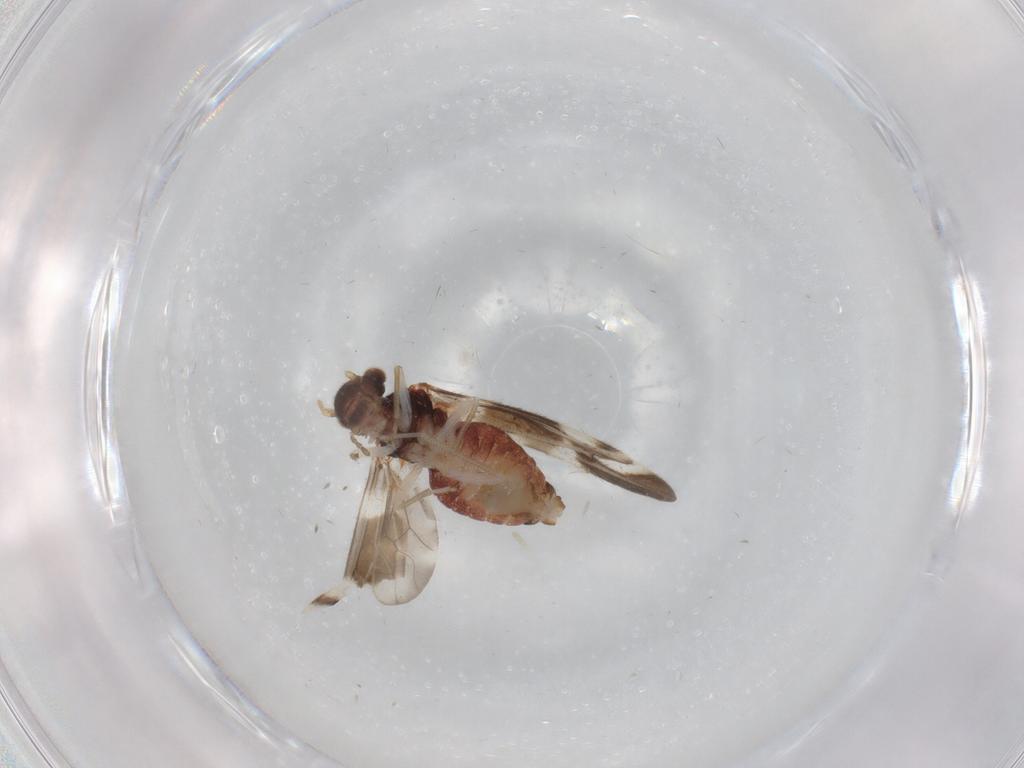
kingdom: Animalia
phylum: Arthropoda
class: Insecta
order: Psocodea
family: Archipsocidae
